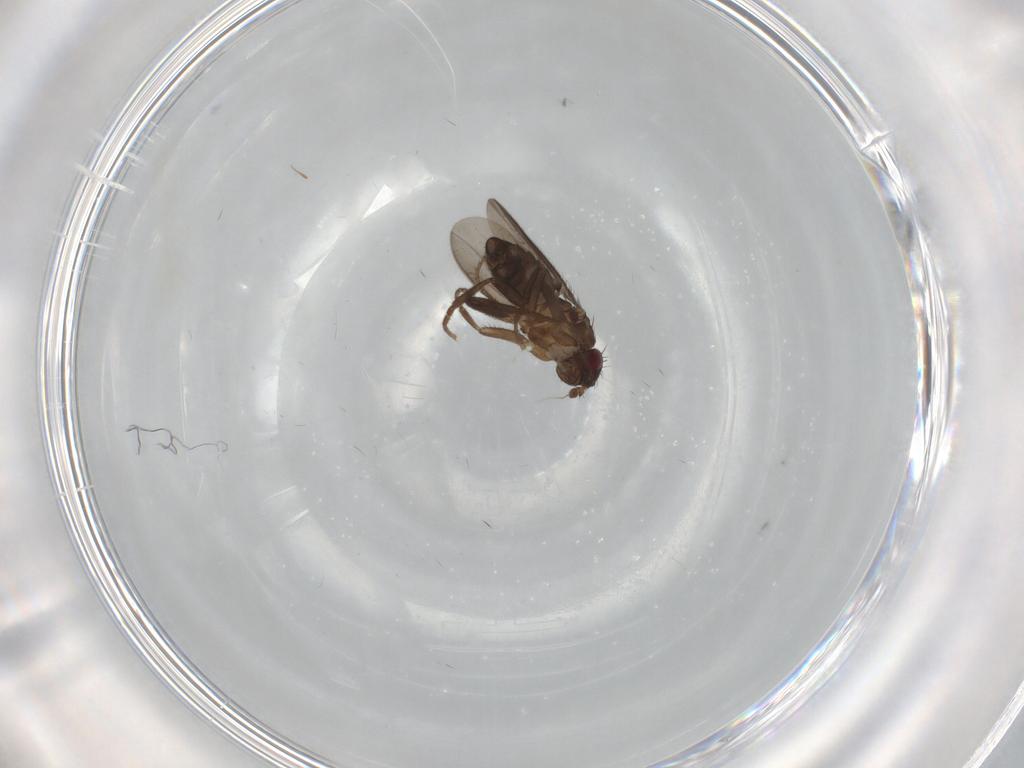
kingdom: Animalia
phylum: Arthropoda
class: Insecta
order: Diptera
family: Sphaeroceridae
